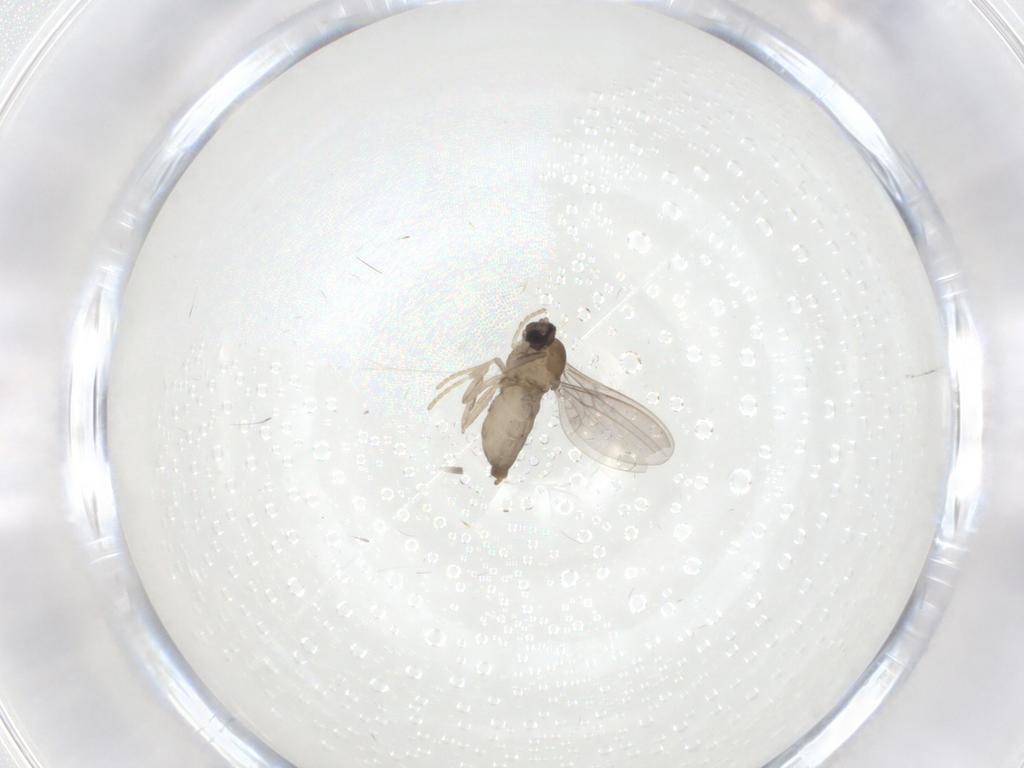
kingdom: Animalia
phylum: Arthropoda
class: Insecta
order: Diptera
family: Cecidomyiidae
